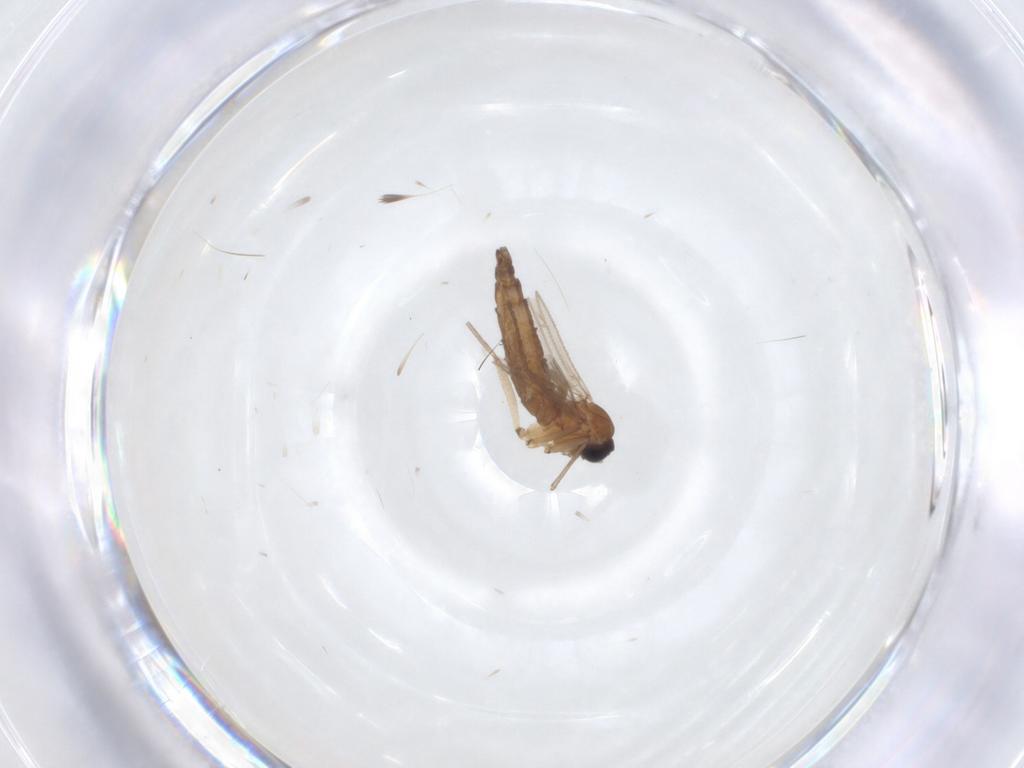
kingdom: Animalia
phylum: Arthropoda
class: Insecta
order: Diptera
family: Sciaridae
